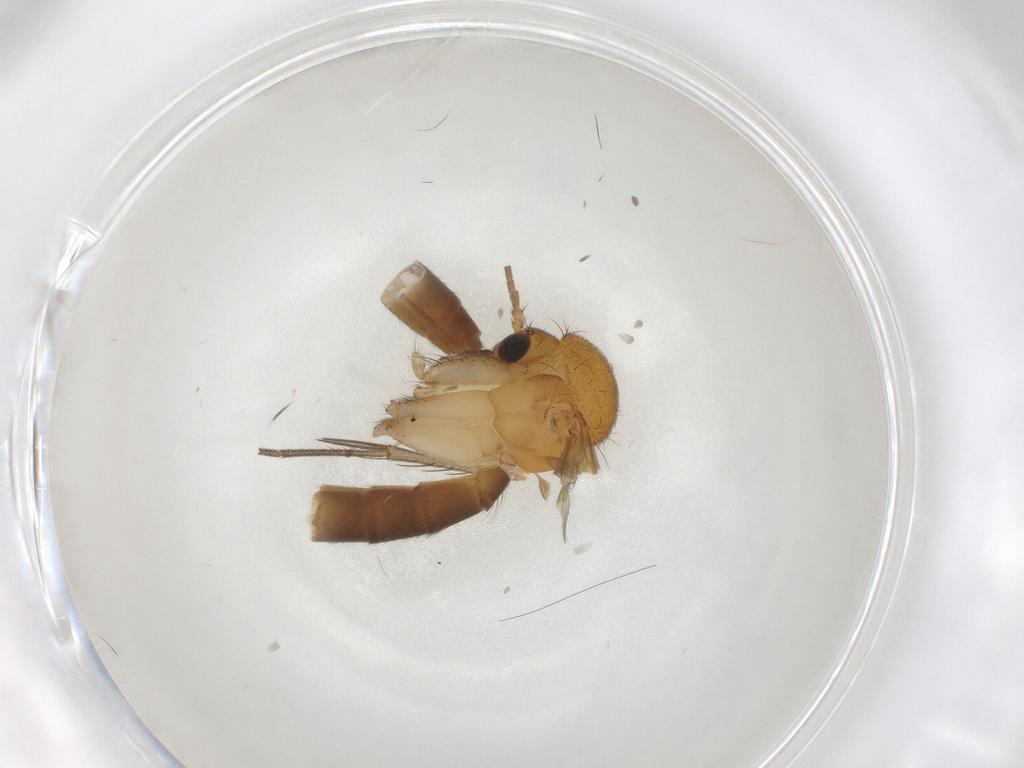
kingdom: Animalia
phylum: Arthropoda
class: Insecta
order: Diptera
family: Mycetophilidae
